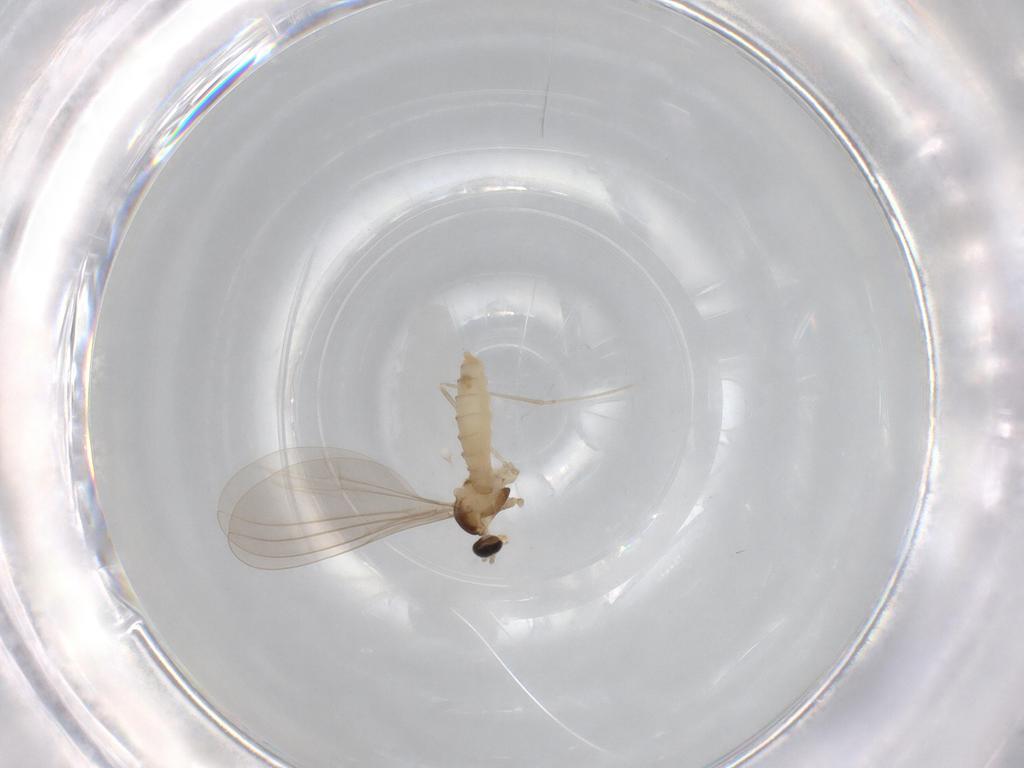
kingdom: Animalia
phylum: Arthropoda
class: Insecta
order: Diptera
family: Cecidomyiidae
